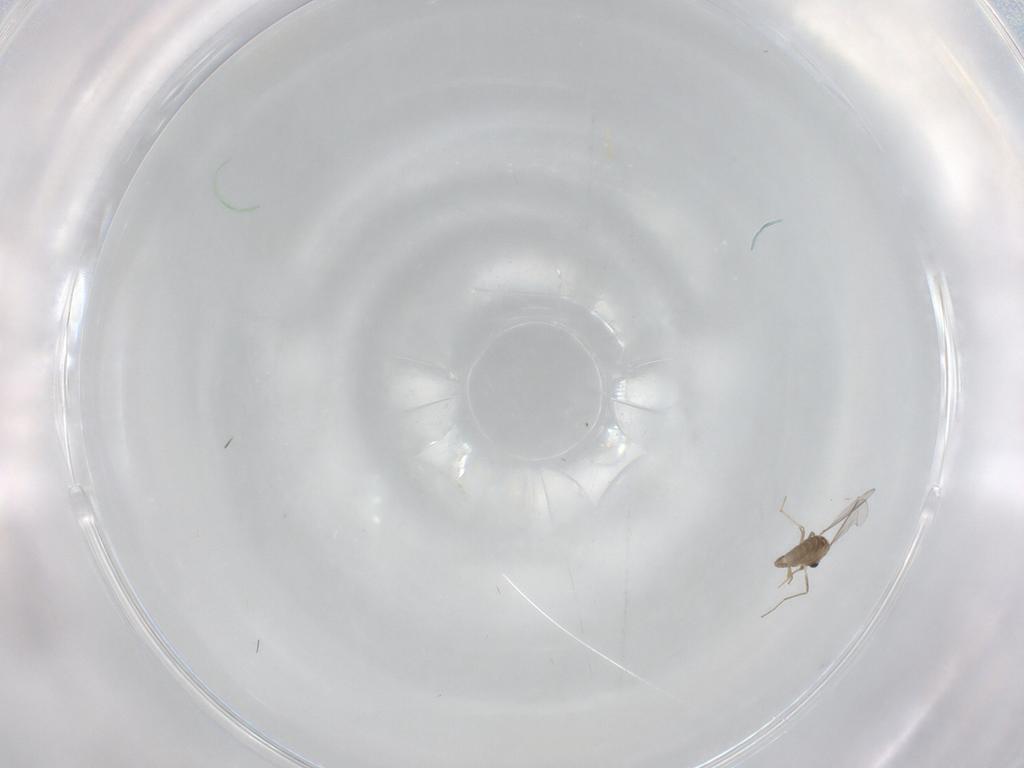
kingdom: Animalia
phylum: Arthropoda
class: Insecta
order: Diptera
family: Chironomidae
